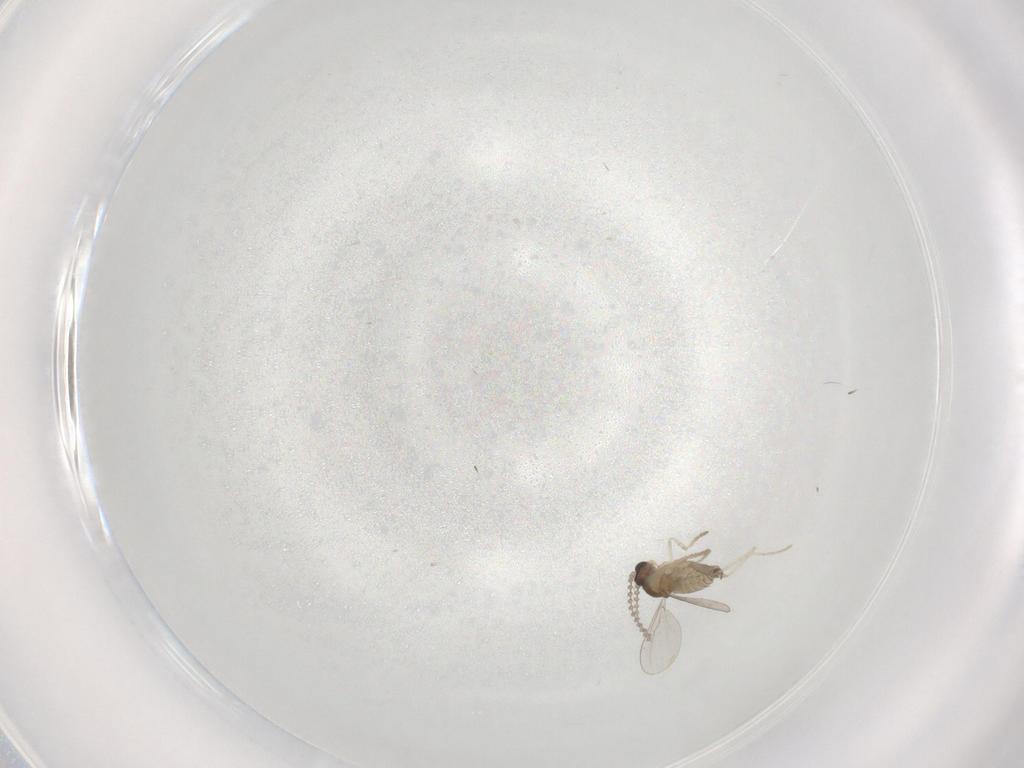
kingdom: Animalia
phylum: Arthropoda
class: Insecta
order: Diptera
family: Cecidomyiidae
